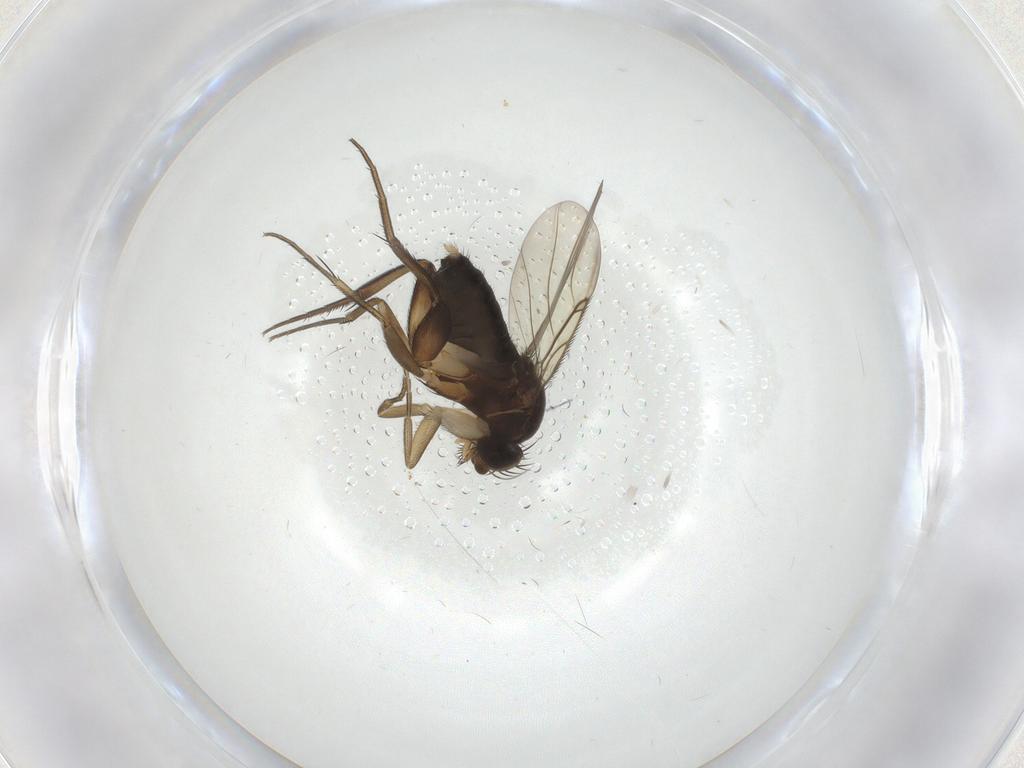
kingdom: Animalia
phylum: Arthropoda
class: Insecta
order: Diptera
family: Phoridae
